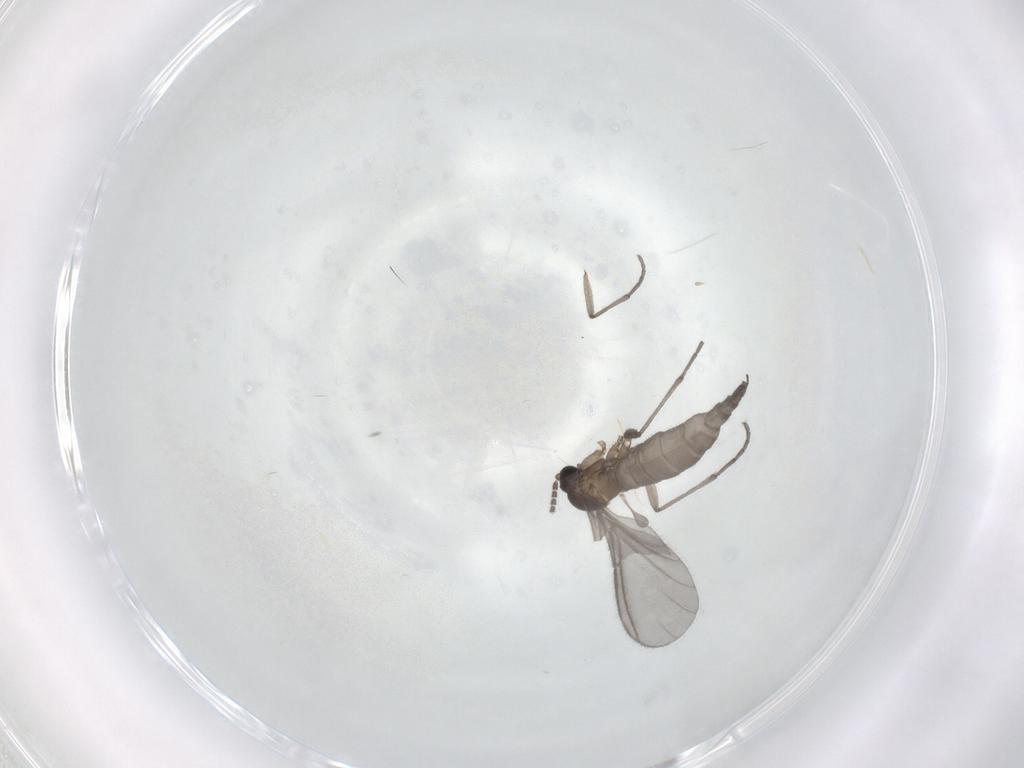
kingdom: Animalia
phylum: Arthropoda
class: Insecta
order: Diptera
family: Sciaridae
